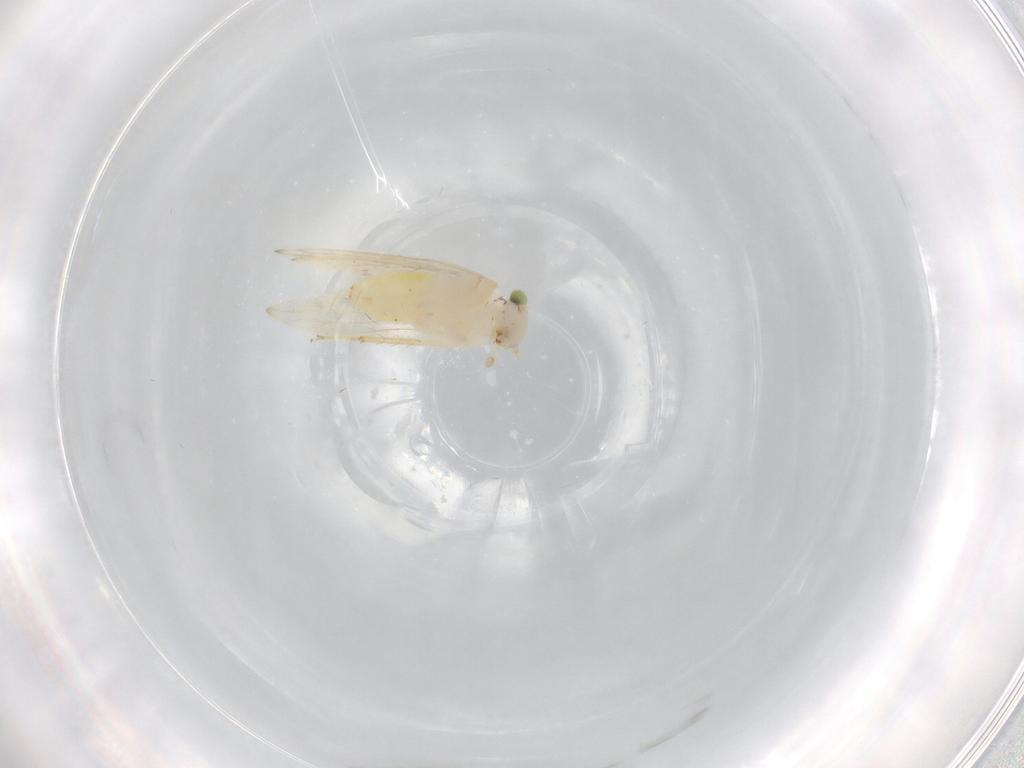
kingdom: Animalia
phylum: Arthropoda
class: Insecta
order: Psocodea
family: Lepidopsocidae
